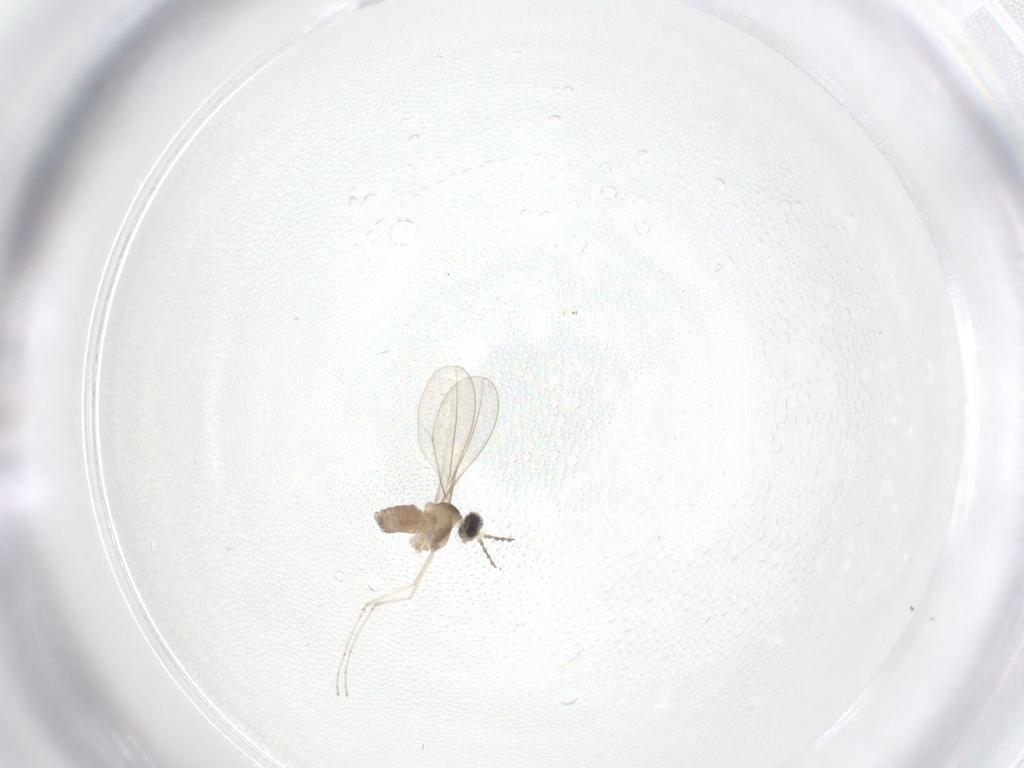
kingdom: Animalia
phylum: Arthropoda
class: Insecta
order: Diptera
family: Cecidomyiidae
